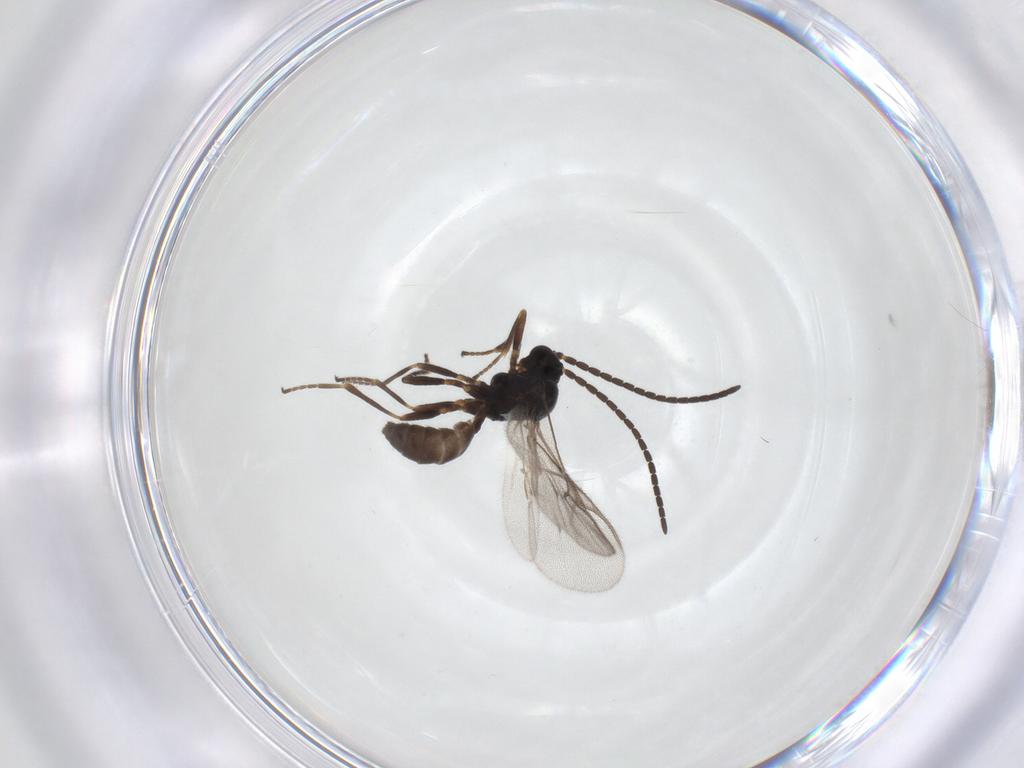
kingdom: Animalia
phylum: Arthropoda
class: Insecta
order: Hymenoptera
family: Braconidae
